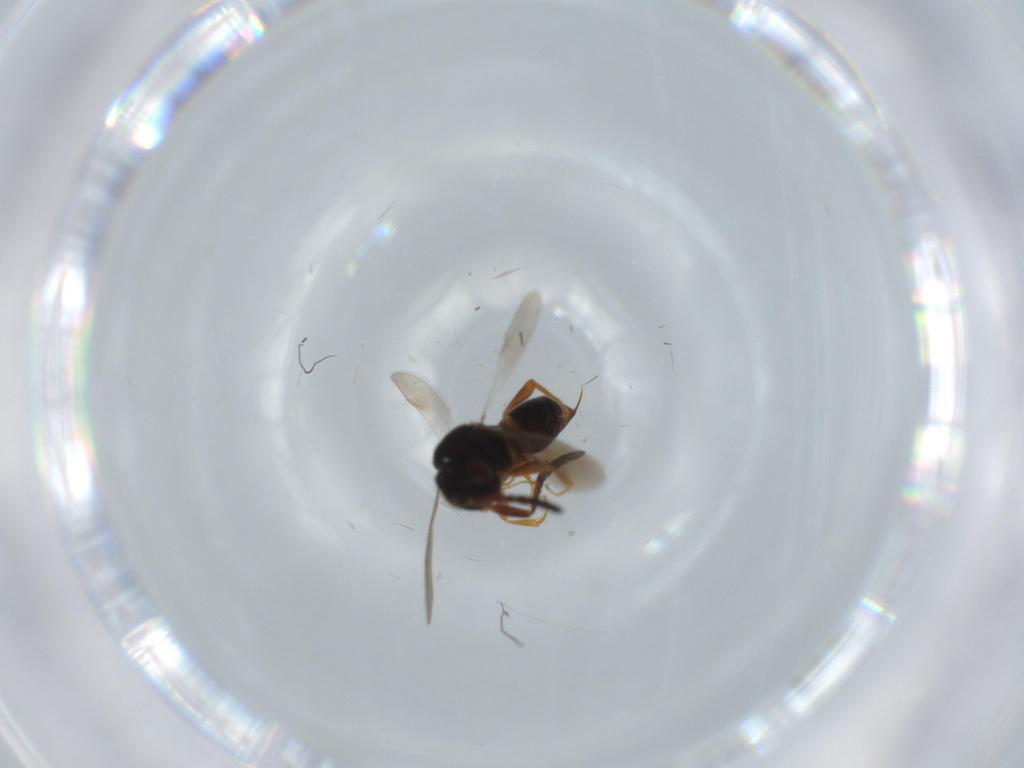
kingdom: Animalia
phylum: Arthropoda
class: Insecta
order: Hymenoptera
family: Ceraphronidae
